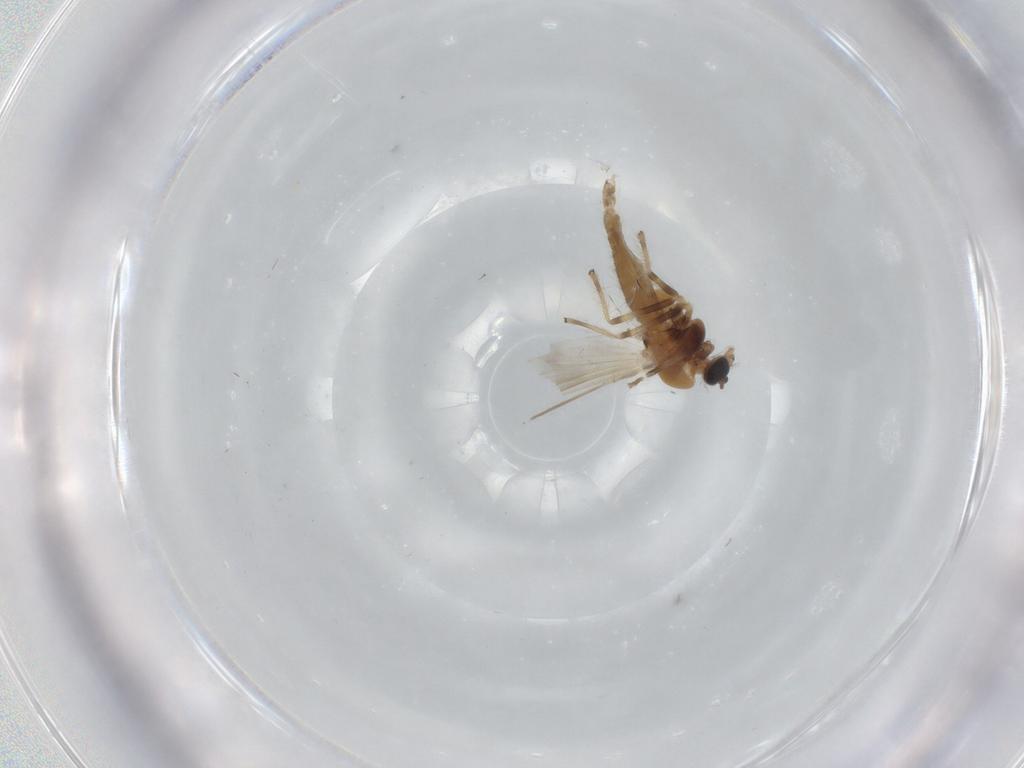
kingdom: Animalia
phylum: Arthropoda
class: Insecta
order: Diptera
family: Chironomidae
